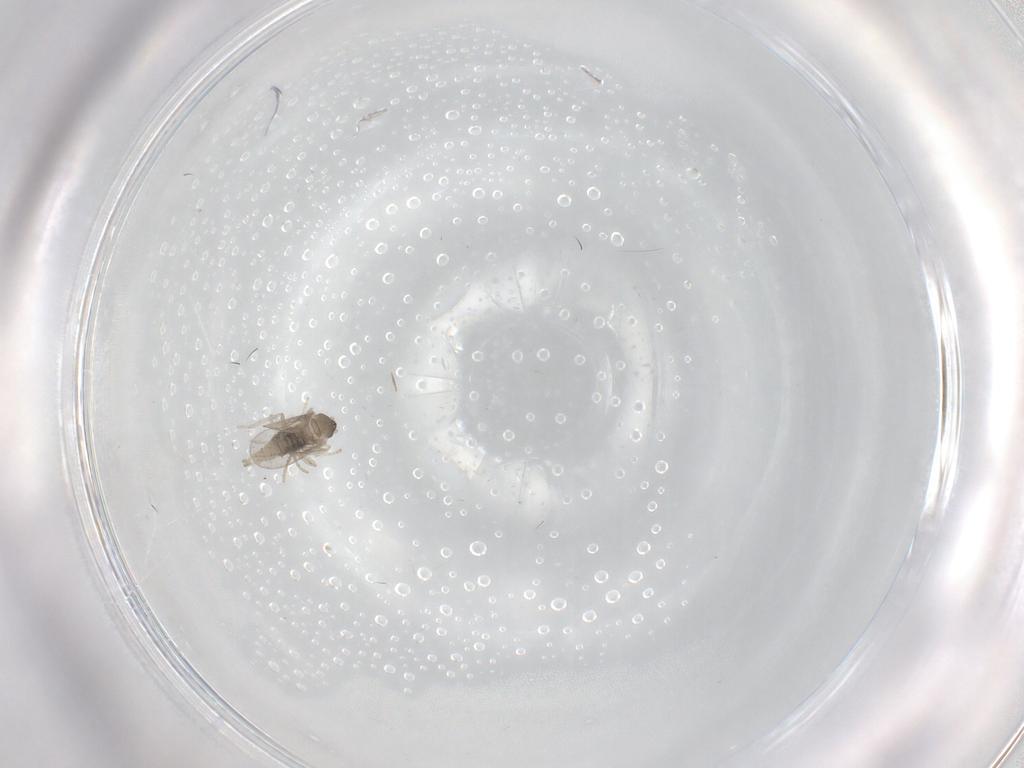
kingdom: Animalia
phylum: Arthropoda
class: Insecta
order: Diptera
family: Cecidomyiidae
